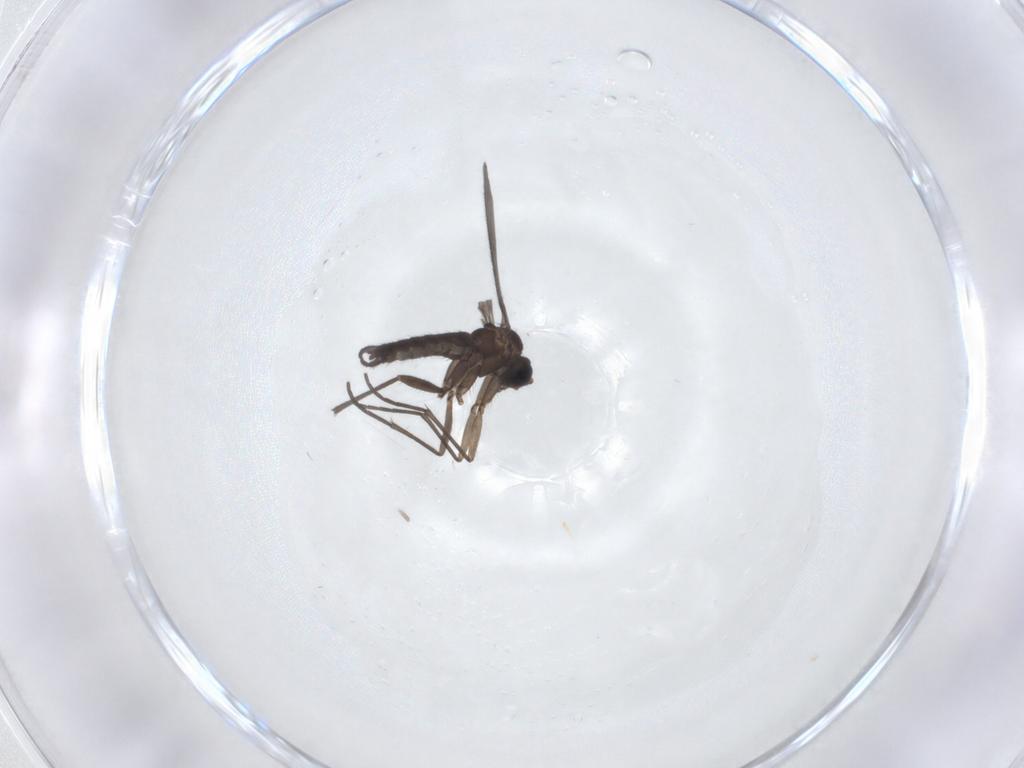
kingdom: Animalia
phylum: Arthropoda
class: Insecta
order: Diptera
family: Sciaridae
